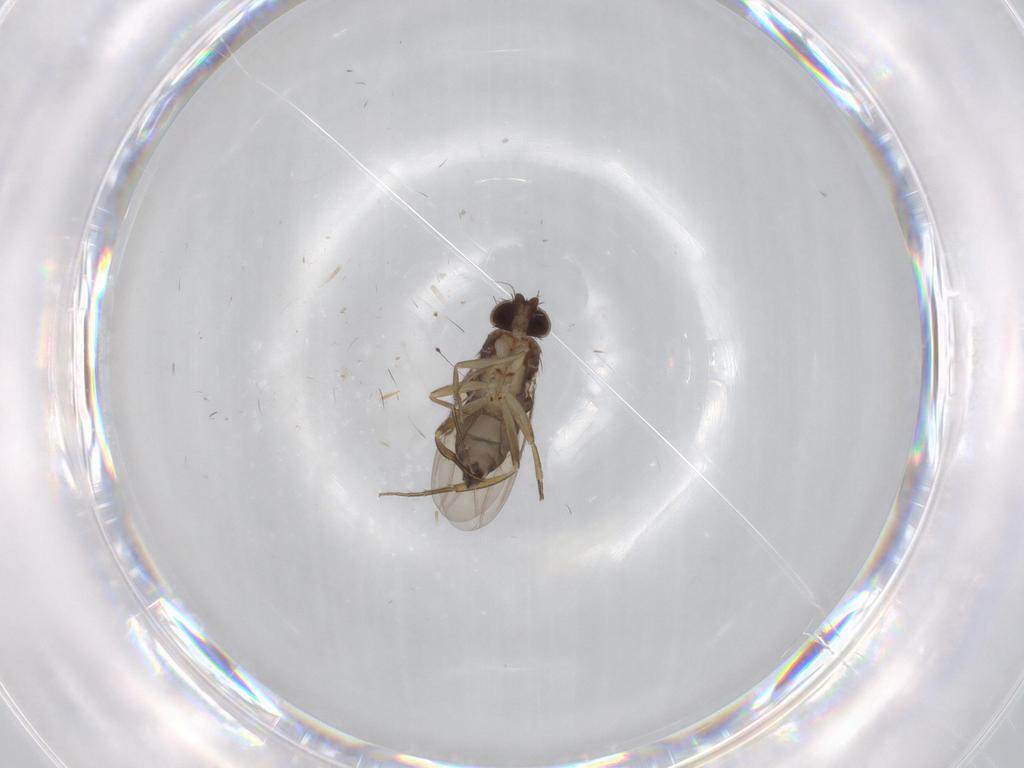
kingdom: Animalia
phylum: Arthropoda
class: Insecta
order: Diptera
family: Phoridae
